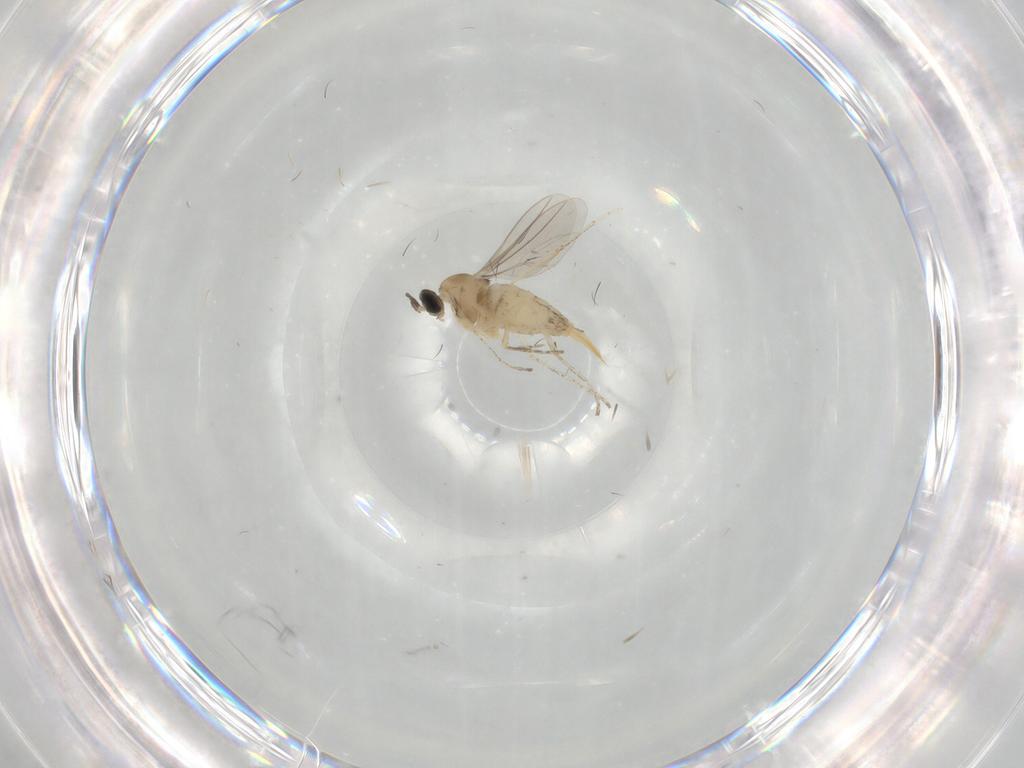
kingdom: Animalia
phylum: Arthropoda
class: Insecta
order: Diptera
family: Cecidomyiidae
